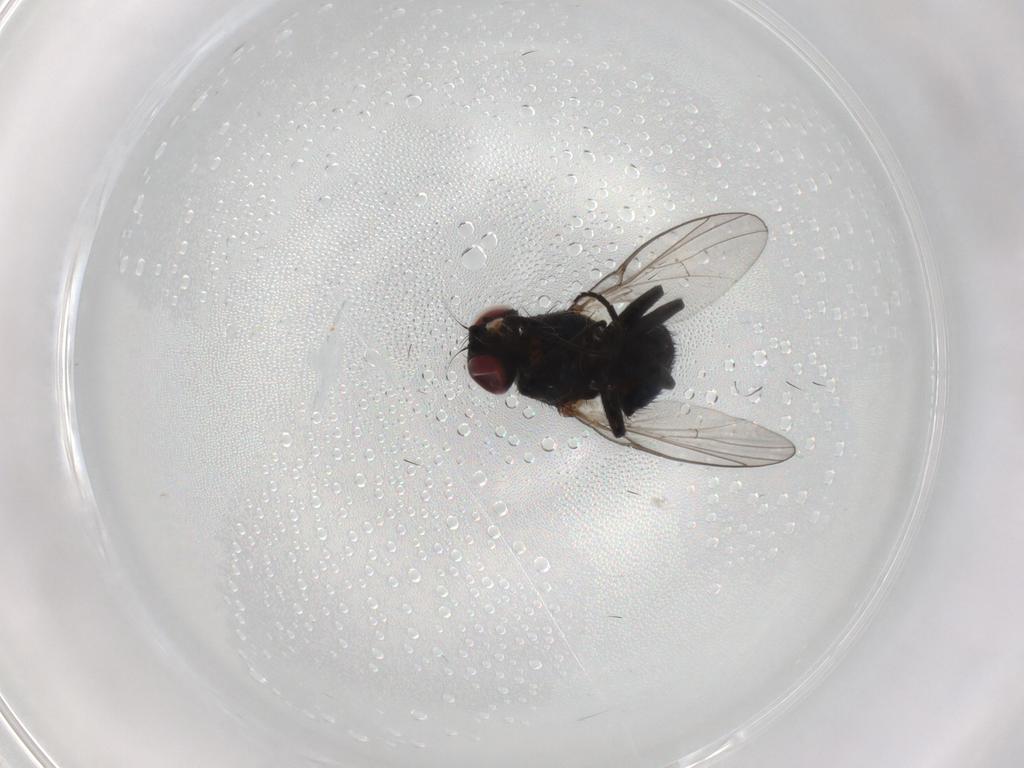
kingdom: Animalia
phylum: Arthropoda
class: Insecta
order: Diptera
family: Agromyzidae
